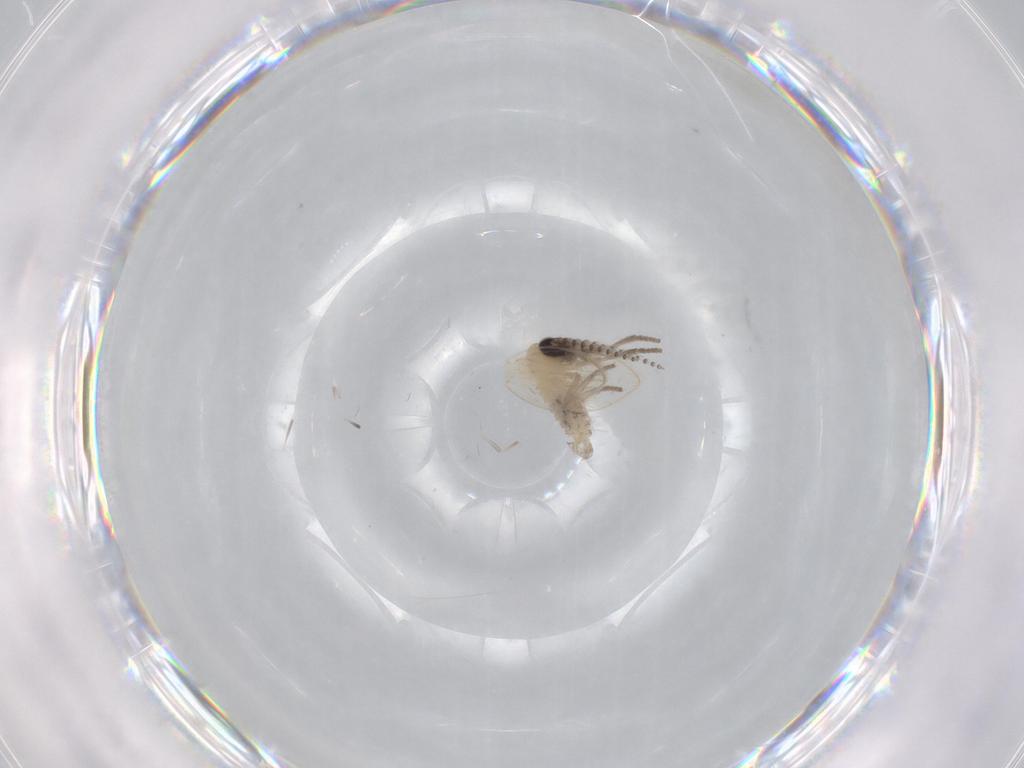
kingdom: Animalia
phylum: Arthropoda
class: Insecta
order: Diptera
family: Psychodidae
